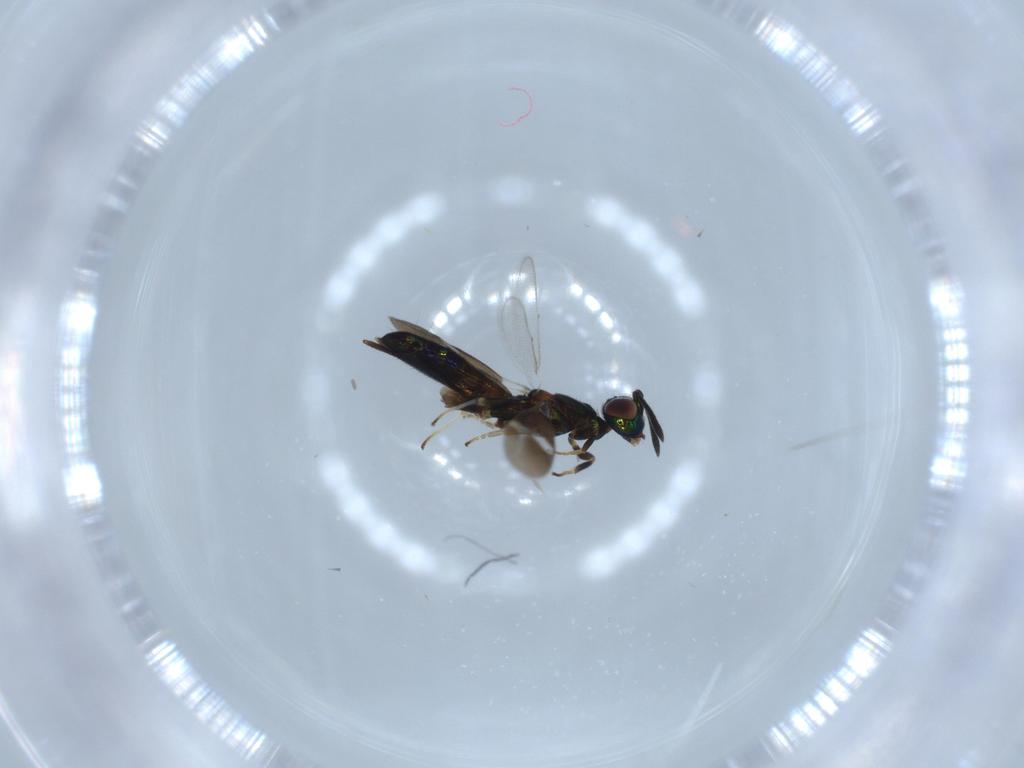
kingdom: Animalia
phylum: Arthropoda
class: Insecta
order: Hymenoptera
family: Eupelmidae
